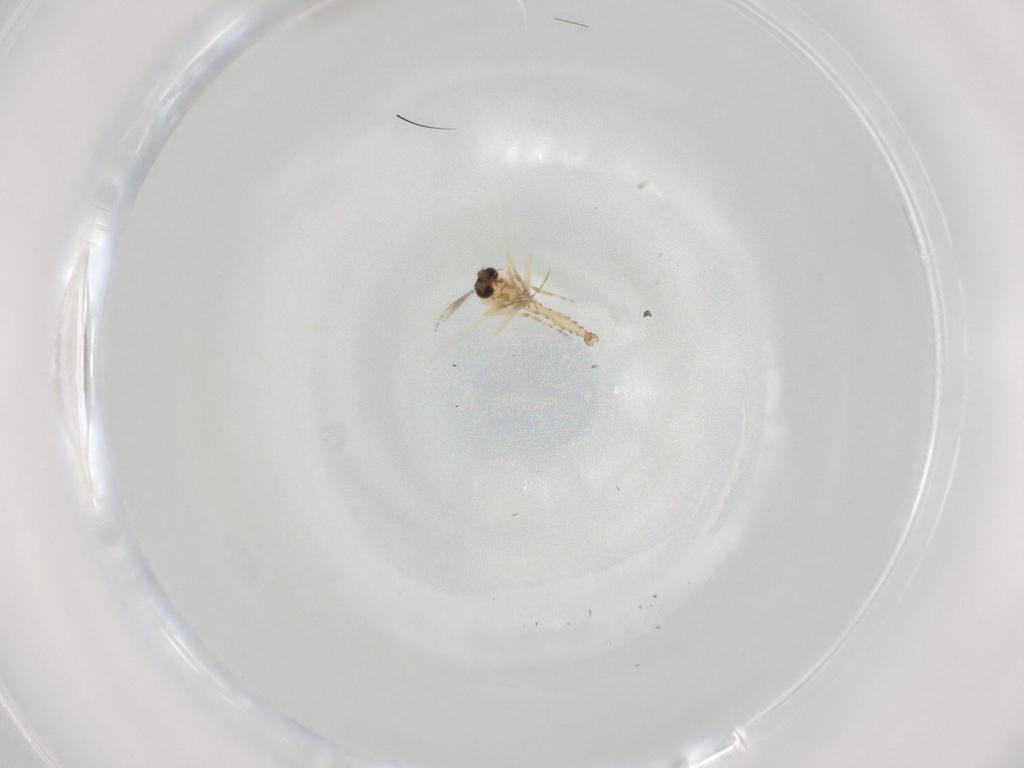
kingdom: Animalia
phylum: Arthropoda
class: Insecta
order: Diptera
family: Ceratopogonidae
